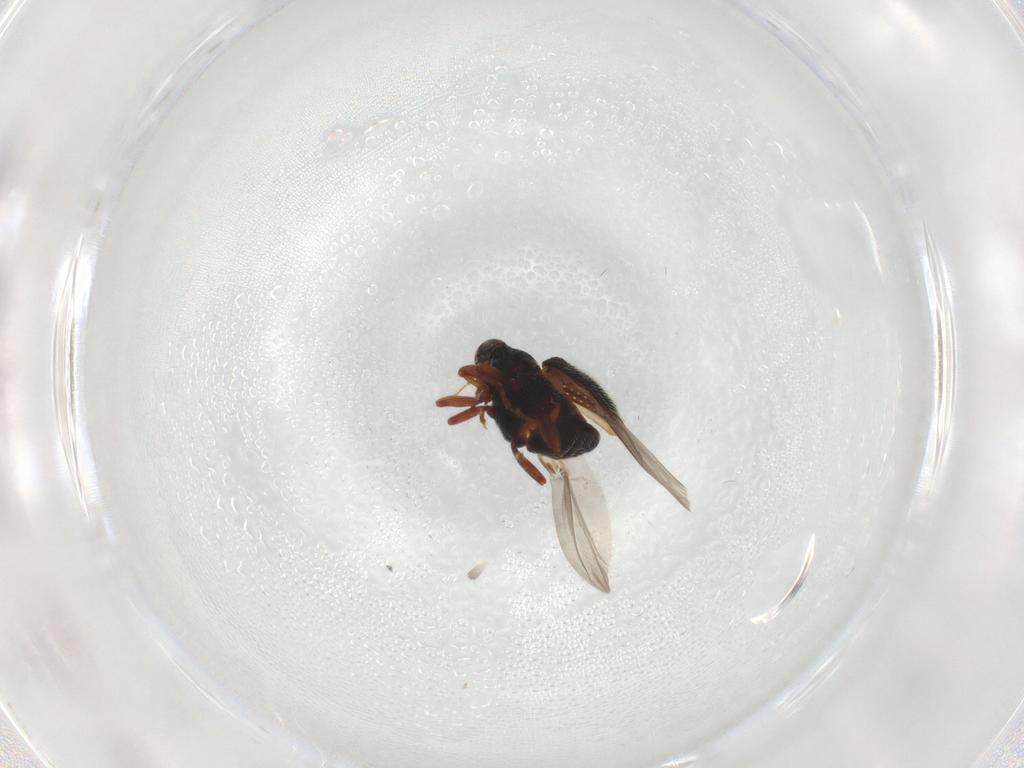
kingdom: Animalia
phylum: Arthropoda
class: Insecta
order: Coleoptera
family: Curculionidae
